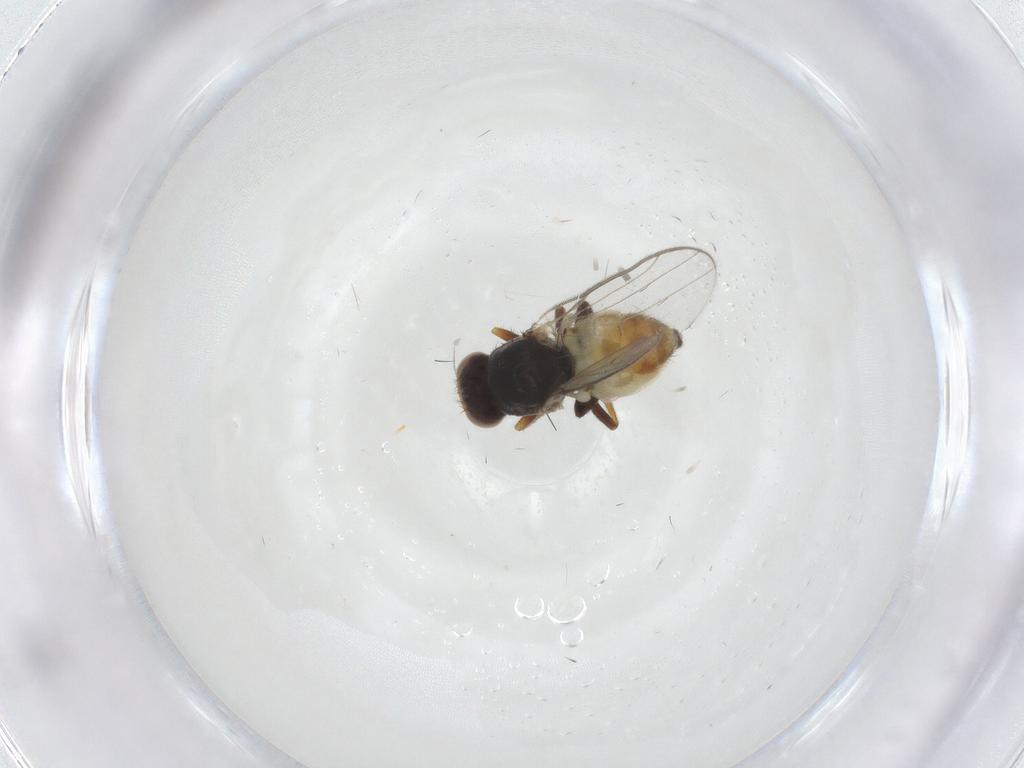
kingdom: Animalia
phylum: Arthropoda
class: Insecta
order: Diptera
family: Chloropidae
